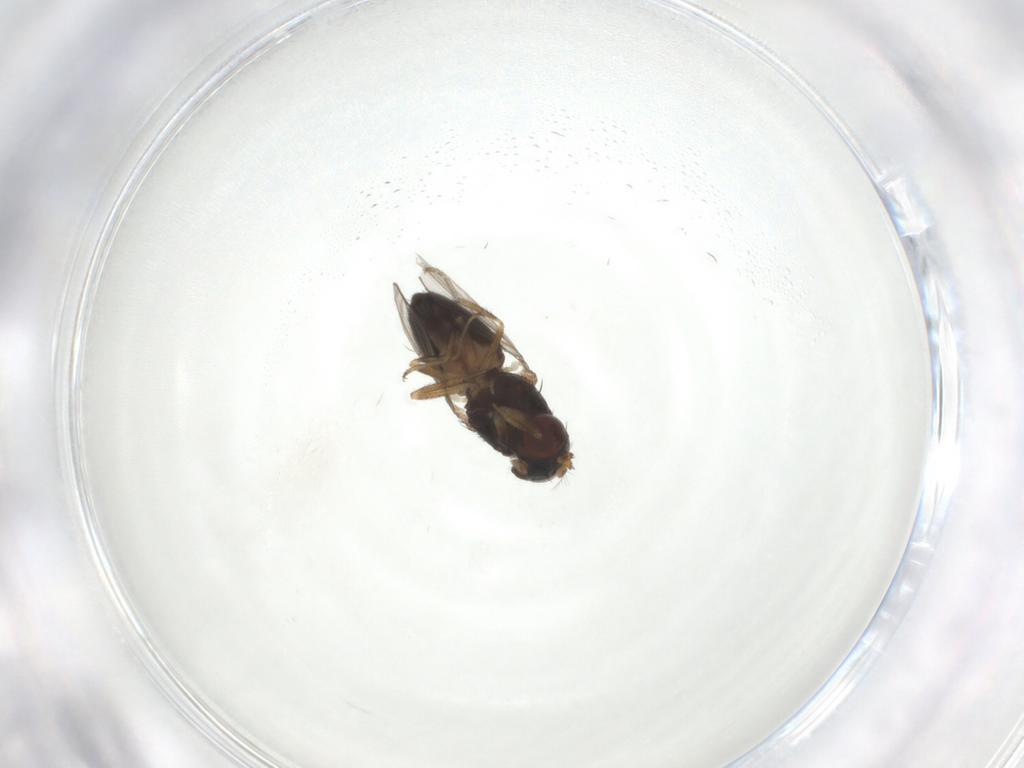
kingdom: Animalia
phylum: Arthropoda
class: Insecta
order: Diptera
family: Ephydridae
